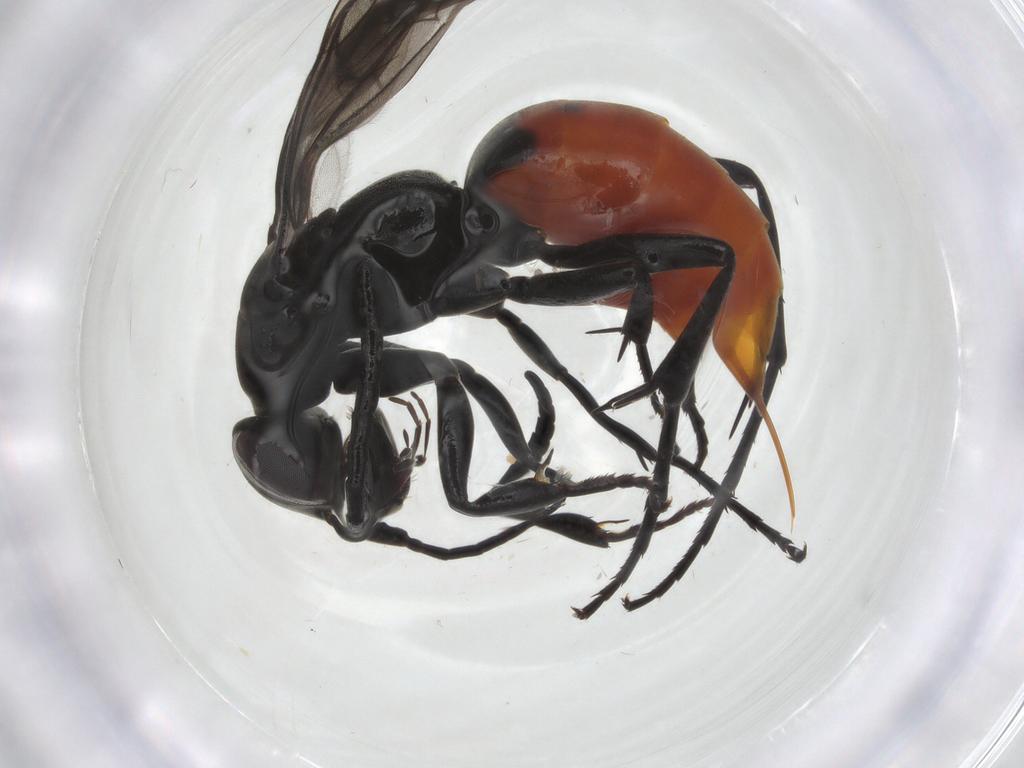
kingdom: Animalia
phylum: Arthropoda
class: Insecta
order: Hymenoptera
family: Pompilidae
